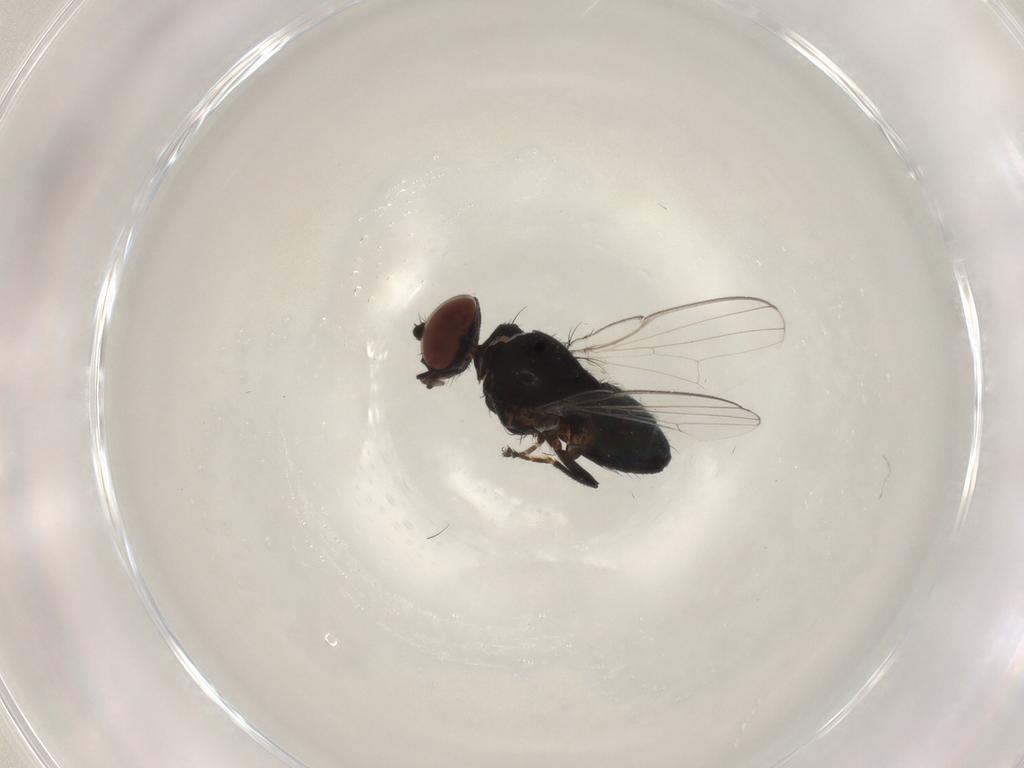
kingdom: Animalia
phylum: Arthropoda
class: Insecta
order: Diptera
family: Milichiidae
